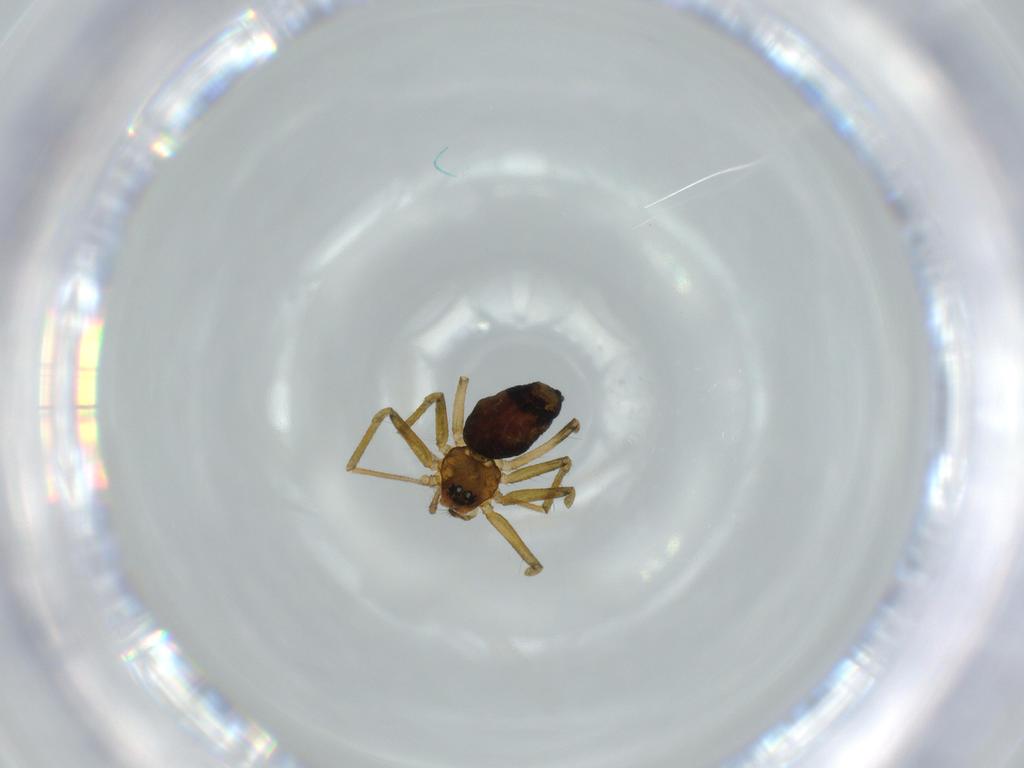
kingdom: Animalia
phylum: Arthropoda
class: Arachnida
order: Araneae
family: Linyphiidae
